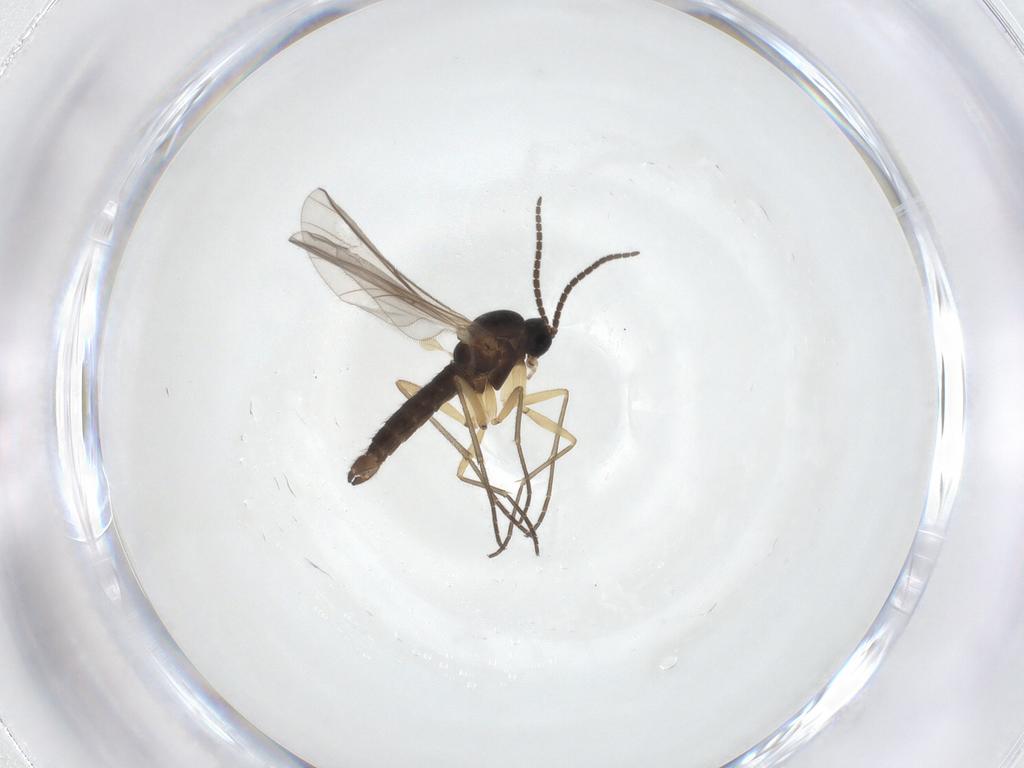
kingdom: Animalia
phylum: Arthropoda
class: Insecta
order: Diptera
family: Sciaridae
